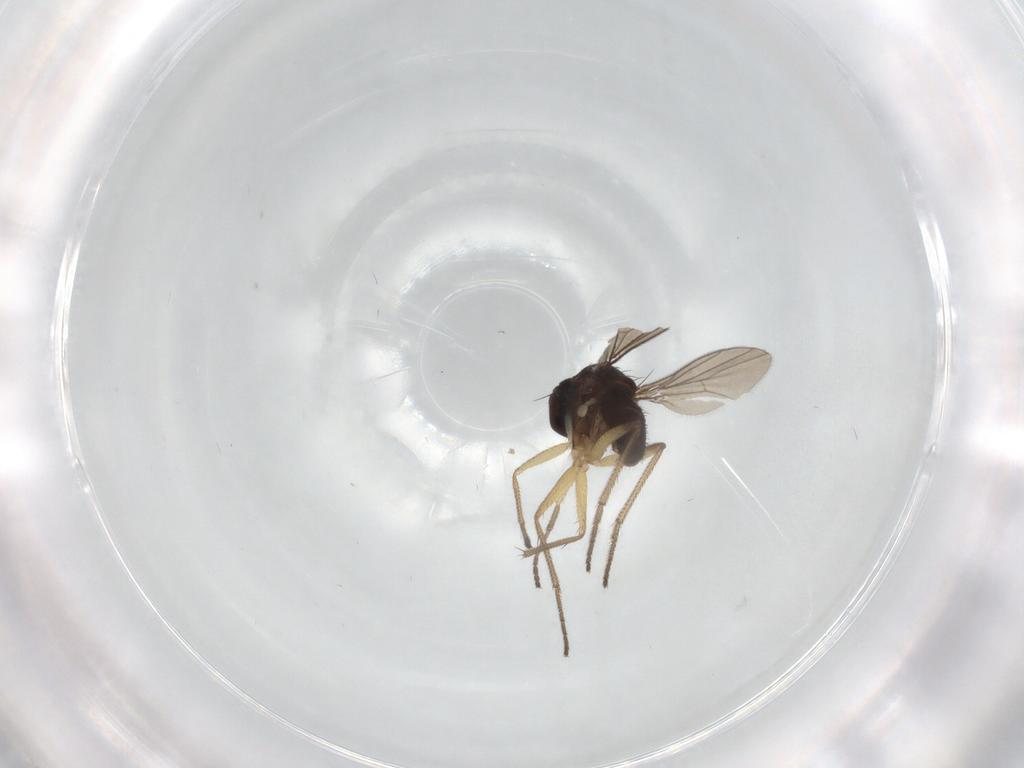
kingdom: Animalia
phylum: Arthropoda
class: Insecta
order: Diptera
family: Dolichopodidae
